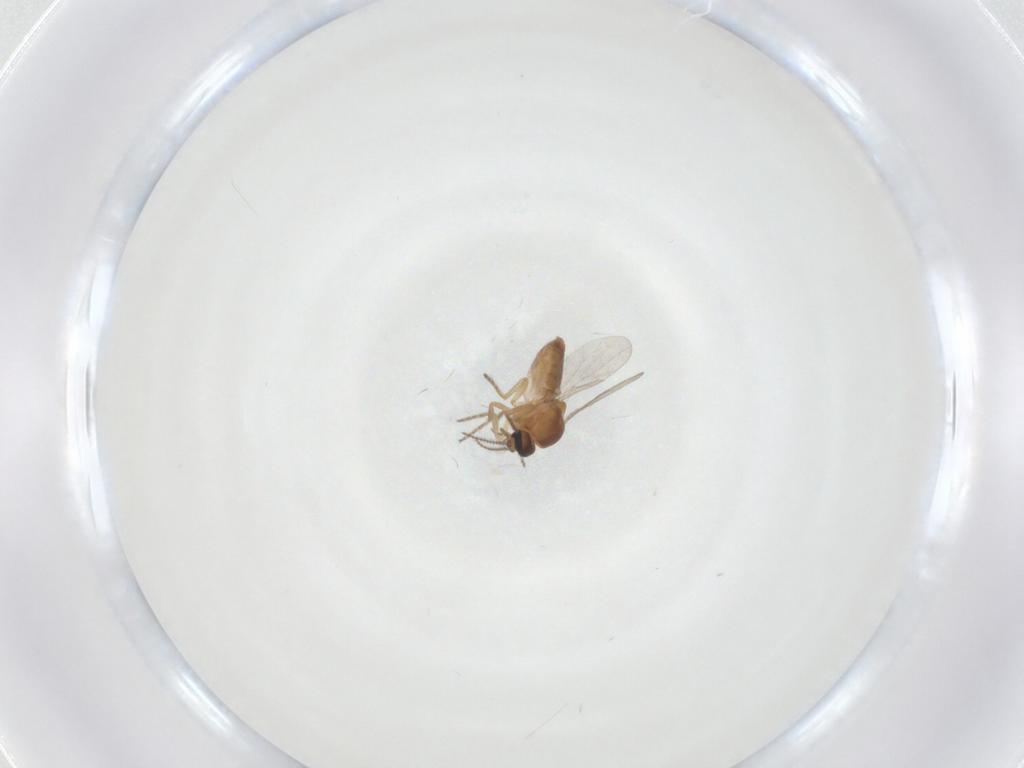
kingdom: Animalia
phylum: Arthropoda
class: Insecta
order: Diptera
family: Ceratopogonidae
